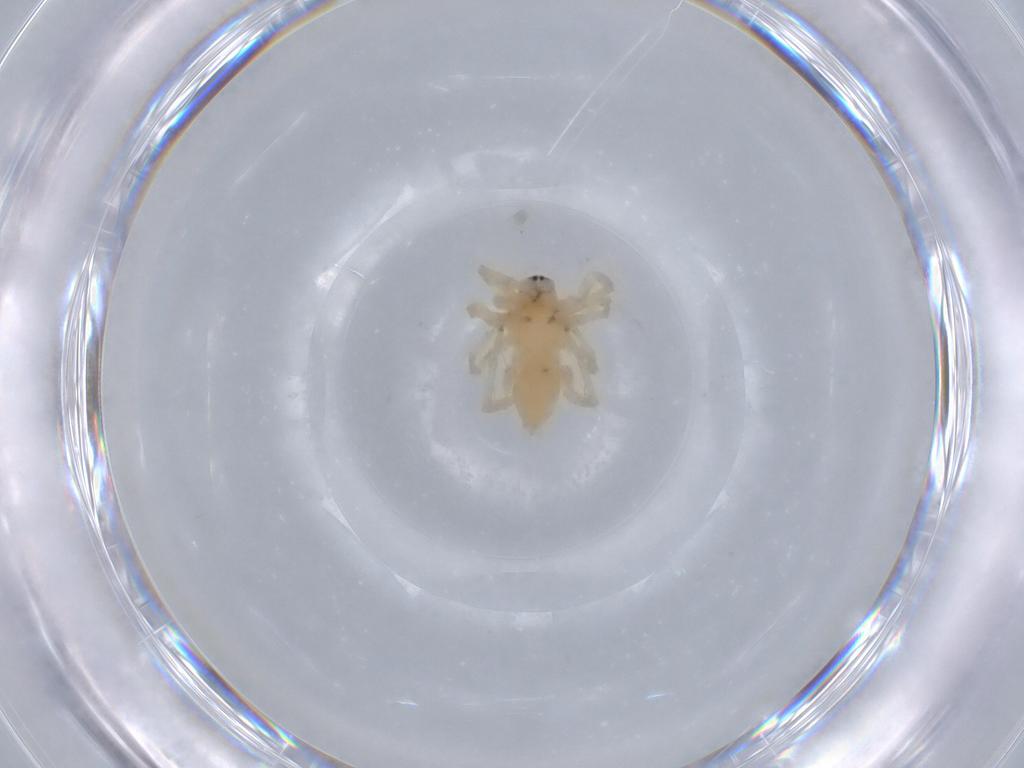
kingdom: Animalia
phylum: Arthropoda
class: Arachnida
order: Araneae
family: Anyphaenidae
